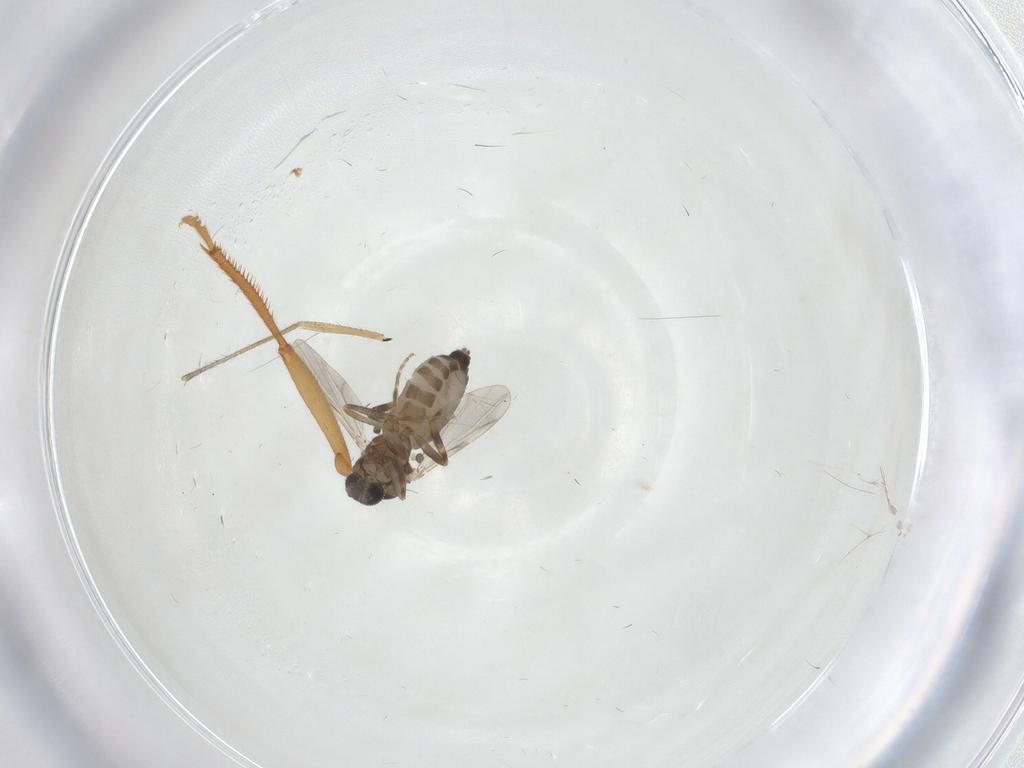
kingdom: Animalia
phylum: Arthropoda
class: Insecta
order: Diptera
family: Ceratopogonidae
